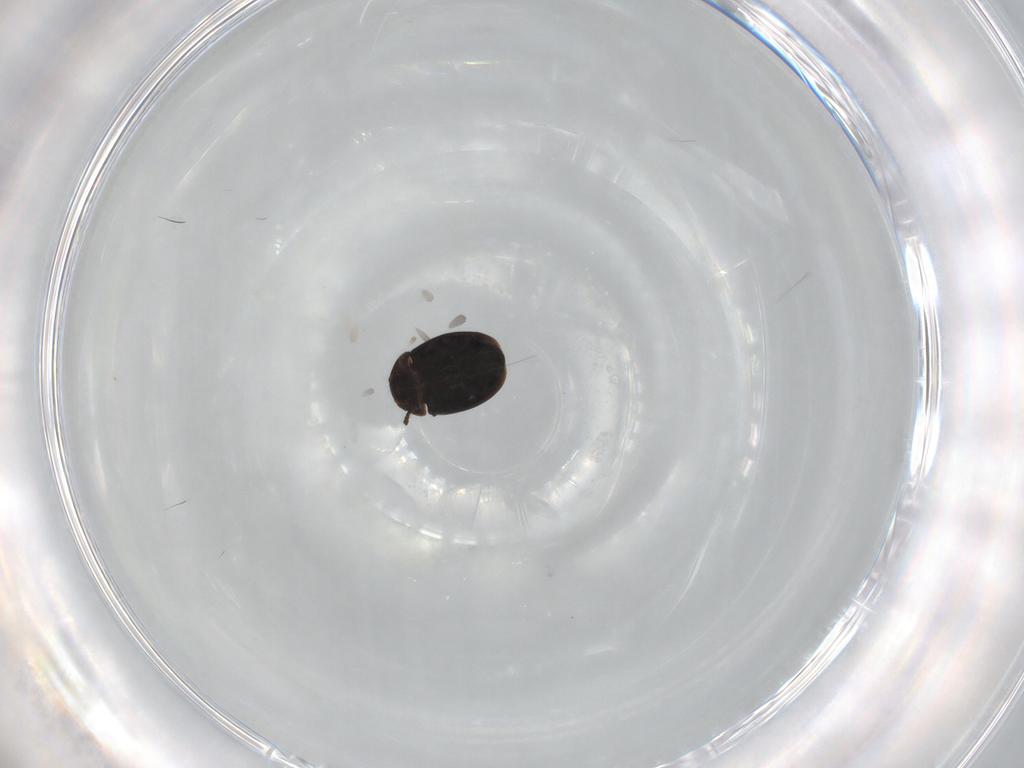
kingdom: Animalia
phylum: Arthropoda
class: Insecta
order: Coleoptera
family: Corylophidae
